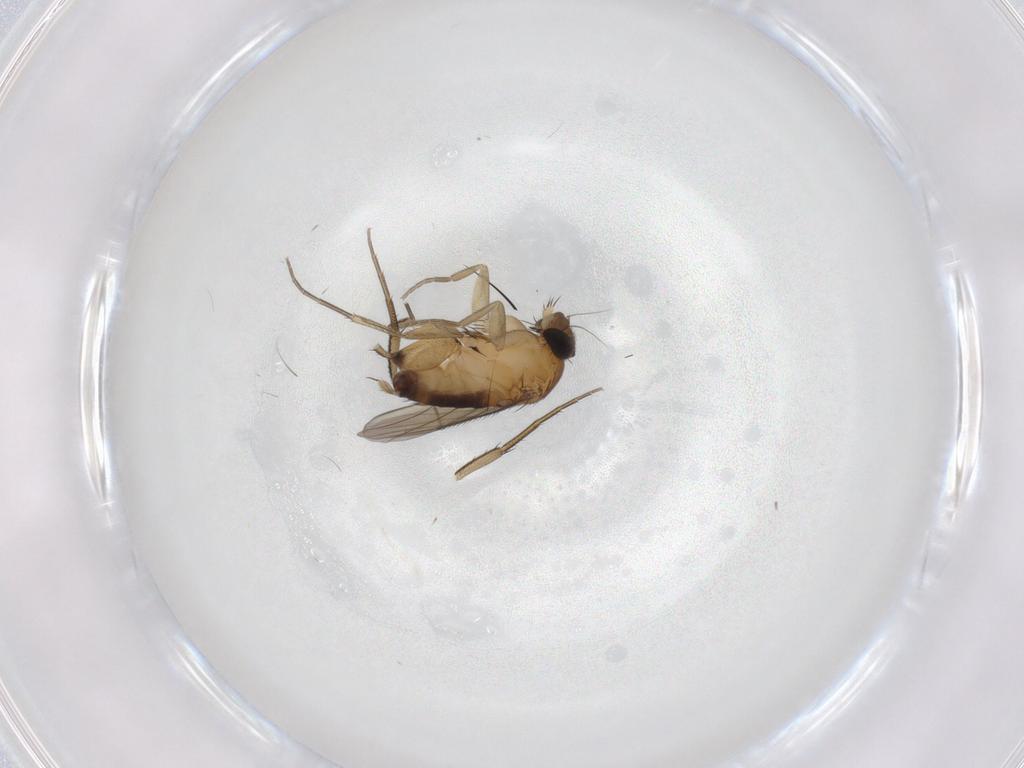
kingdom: Animalia
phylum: Arthropoda
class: Insecta
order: Diptera
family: Phoridae
